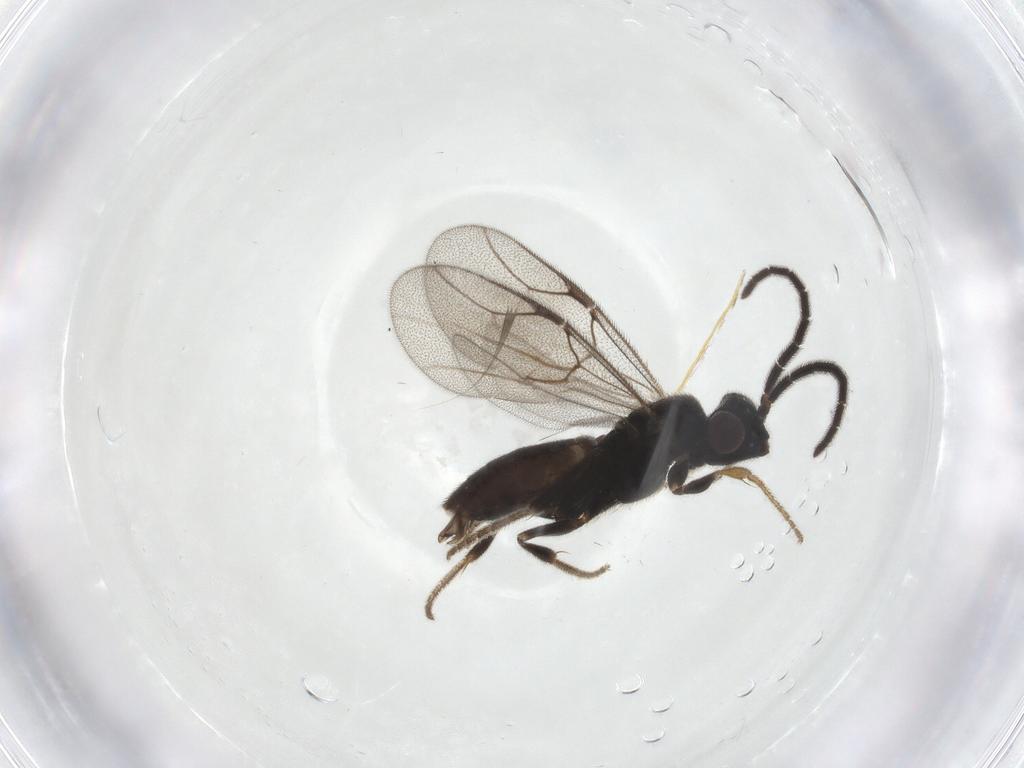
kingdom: Animalia
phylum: Arthropoda
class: Insecta
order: Hymenoptera
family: Dryinidae
